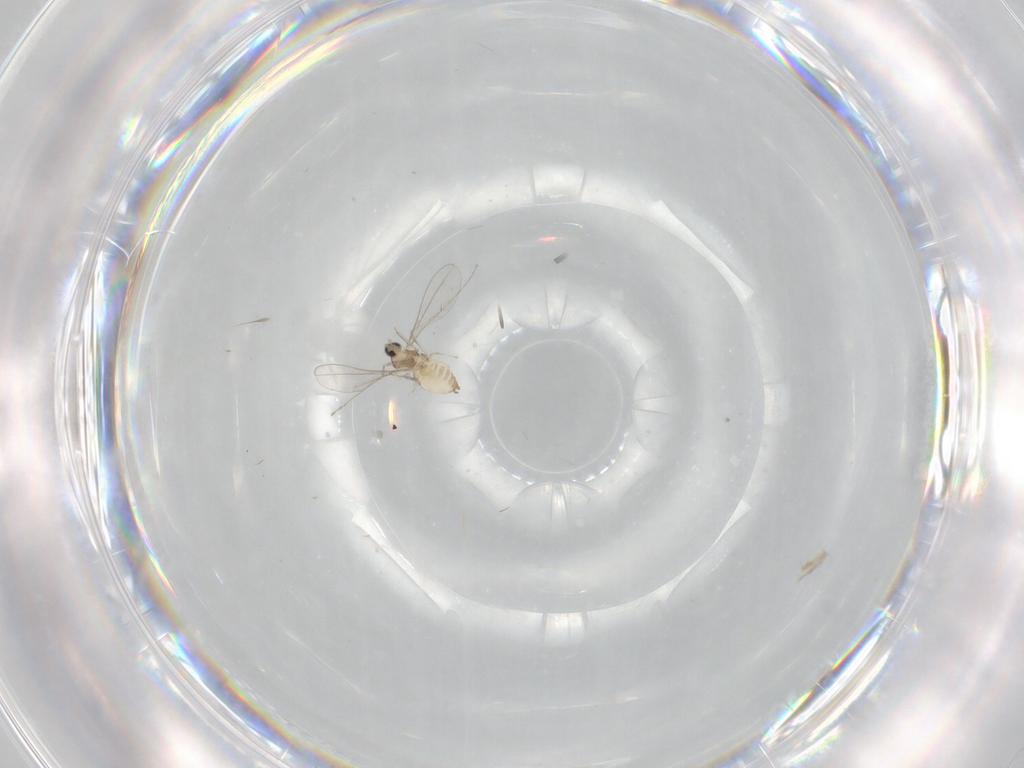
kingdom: Animalia
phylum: Arthropoda
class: Insecta
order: Diptera
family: Cecidomyiidae
